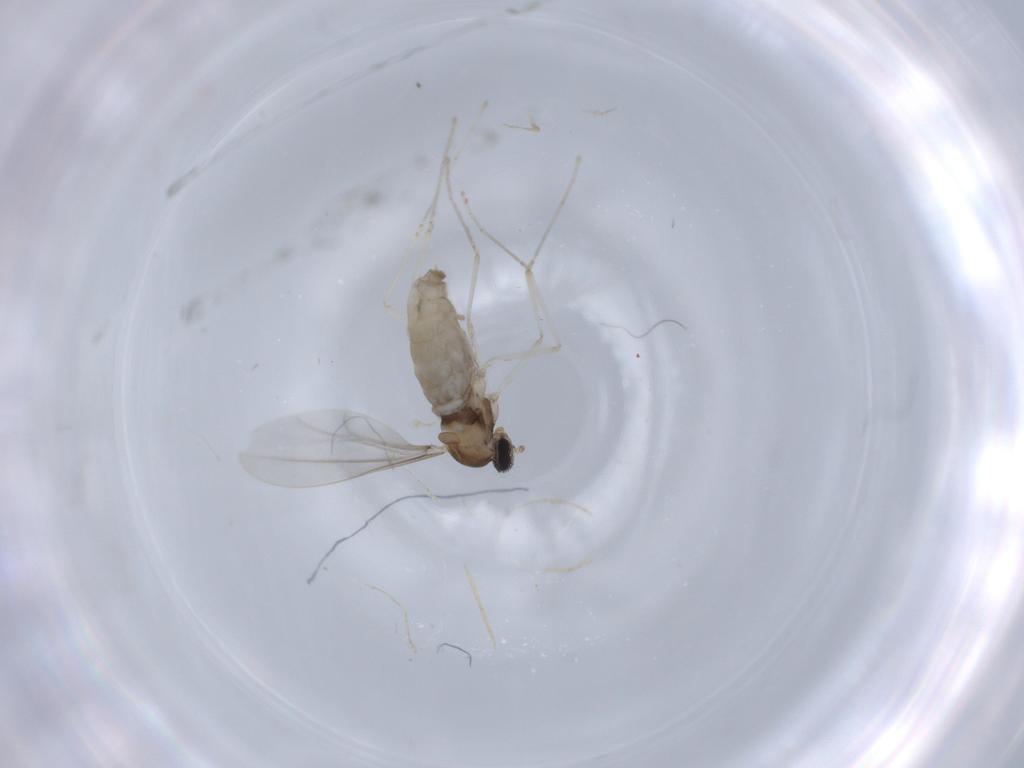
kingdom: Animalia
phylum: Arthropoda
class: Insecta
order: Diptera
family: Cecidomyiidae
